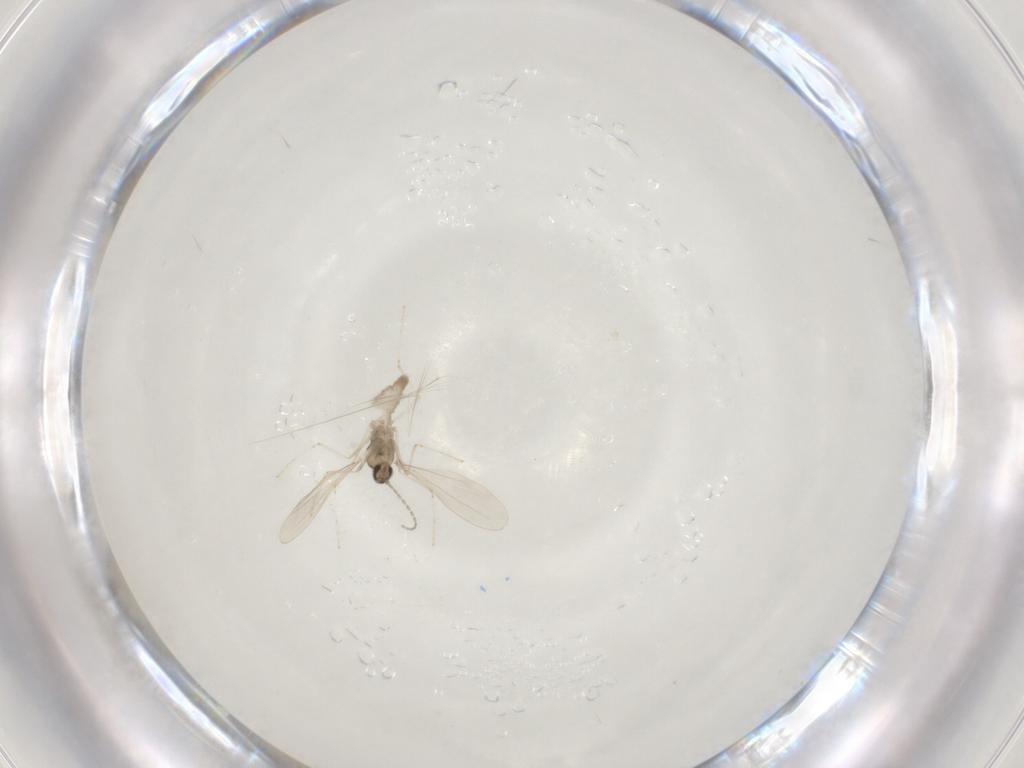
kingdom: Animalia
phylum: Arthropoda
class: Insecta
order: Diptera
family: Cecidomyiidae
